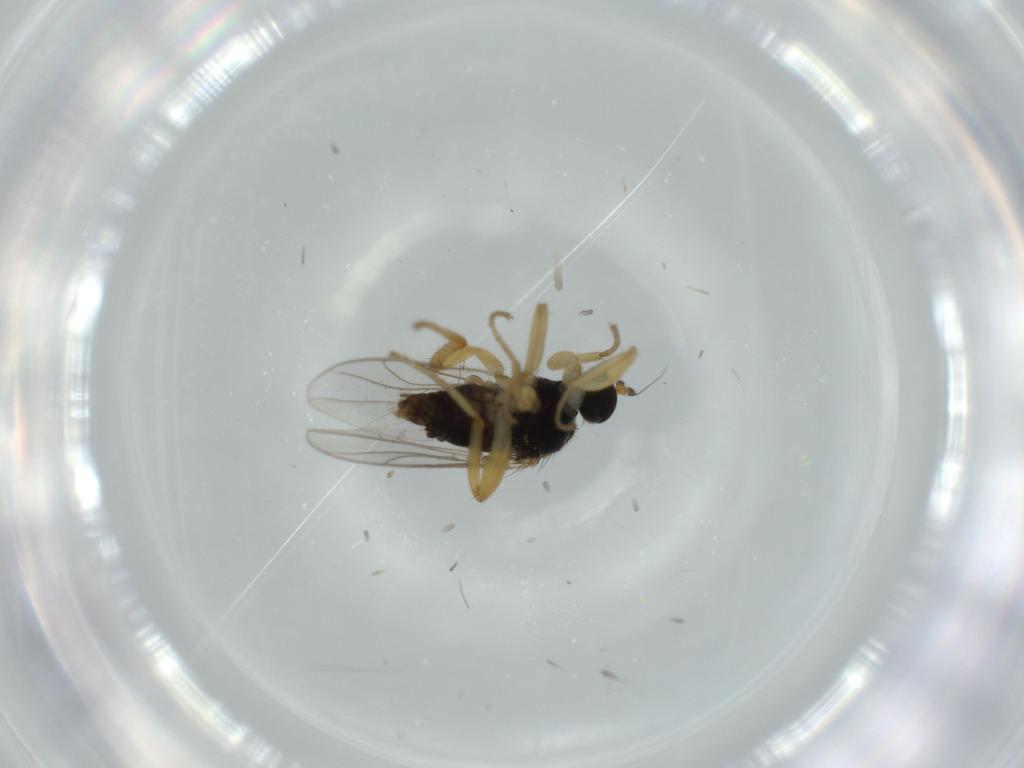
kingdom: Animalia
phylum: Arthropoda
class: Insecta
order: Diptera
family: Hybotidae
